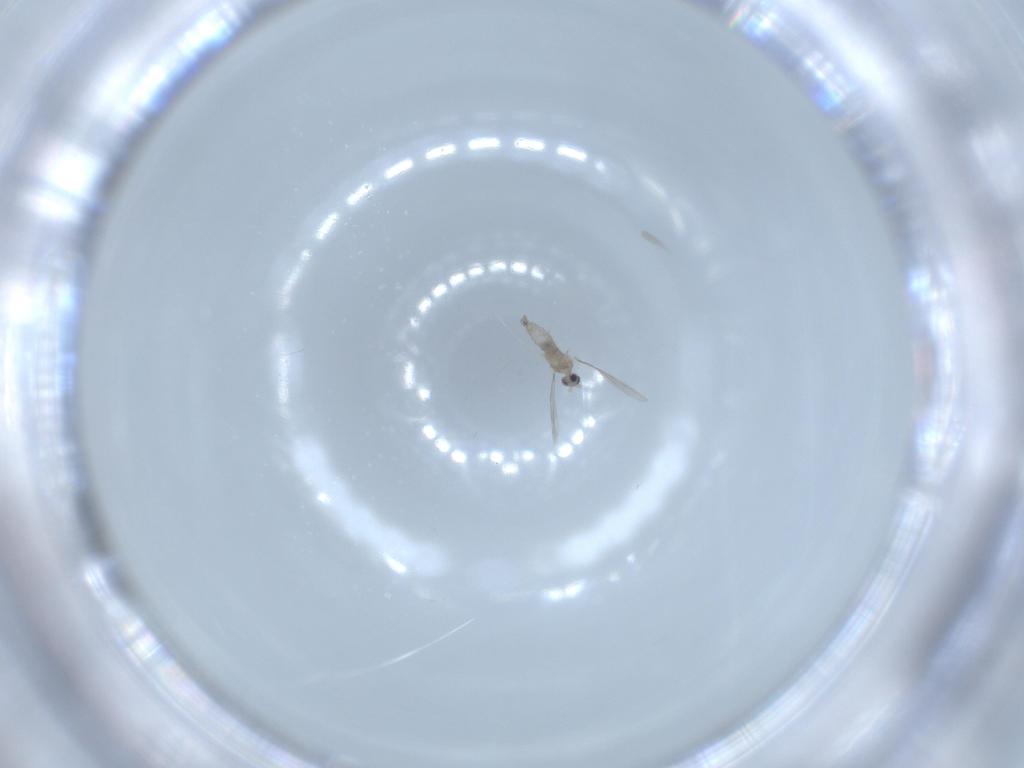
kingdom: Animalia
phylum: Arthropoda
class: Insecta
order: Diptera
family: Cecidomyiidae
